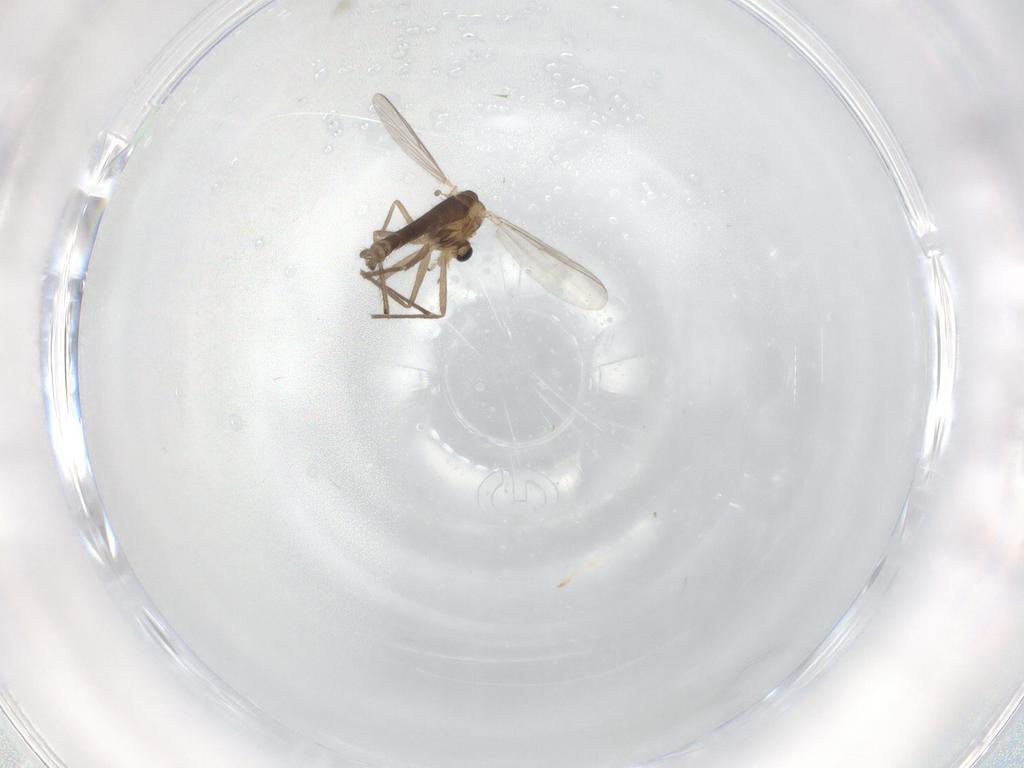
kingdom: Animalia
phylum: Arthropoda
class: Insecta
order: Diptera
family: Chironomidae
